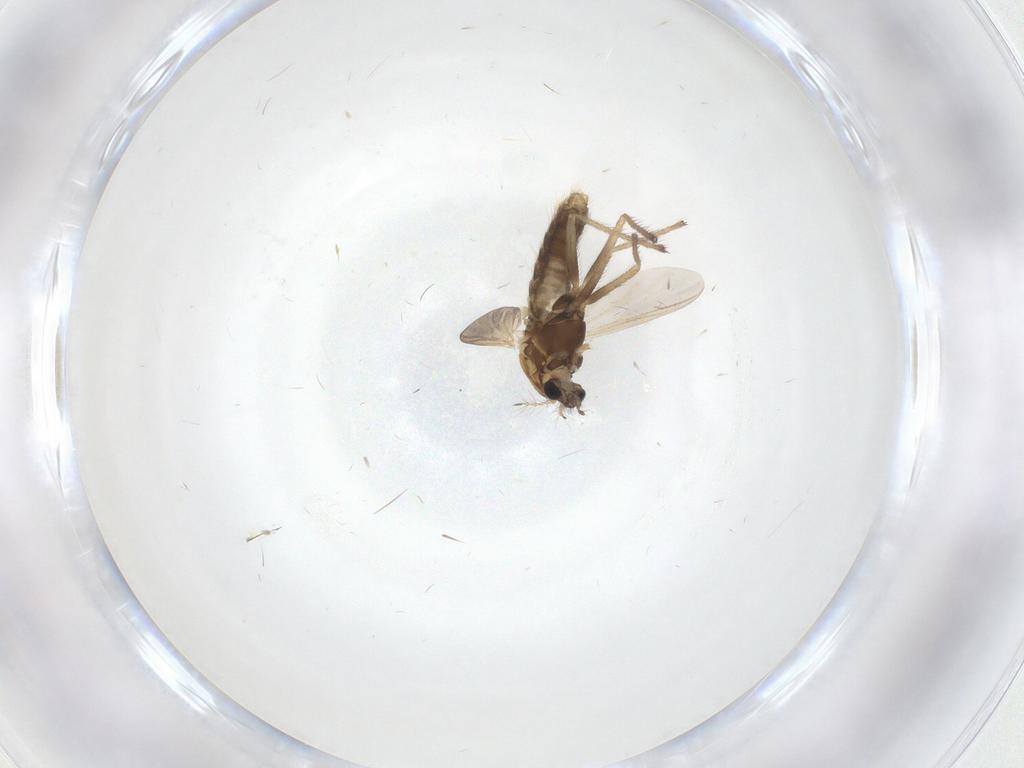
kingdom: Animalia
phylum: Arthropoda
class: Insecta
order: Diptera
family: Chironomidae
